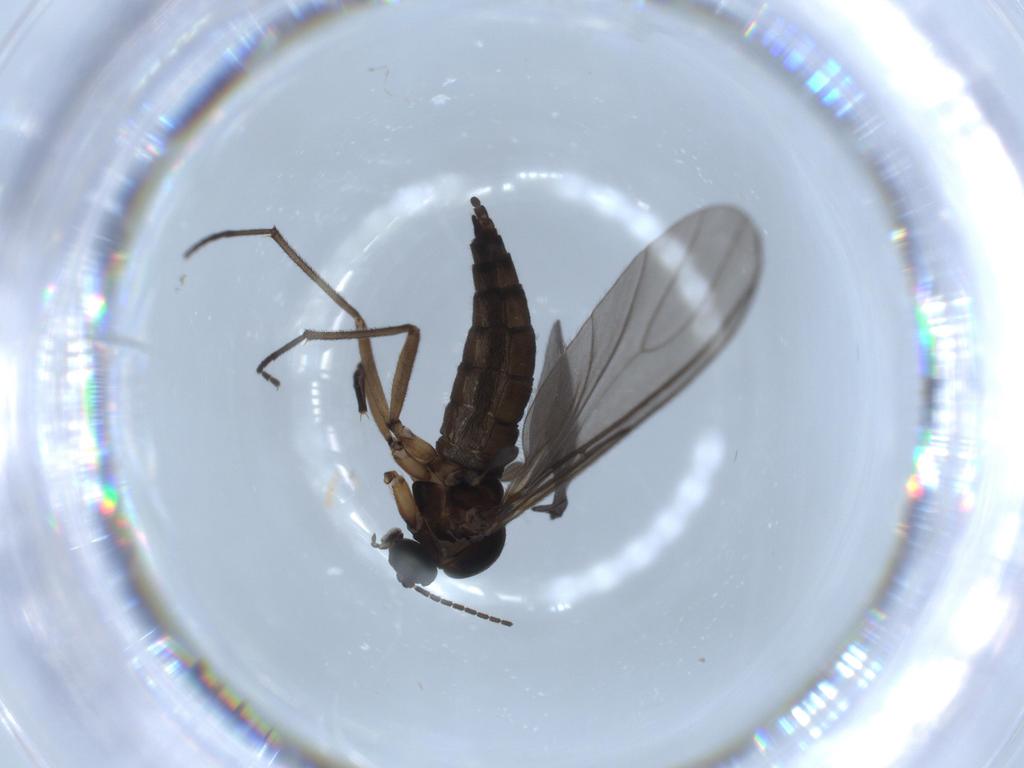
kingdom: Animalia
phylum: Arthropoda
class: Insecta
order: Diptera
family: Sciaridae
